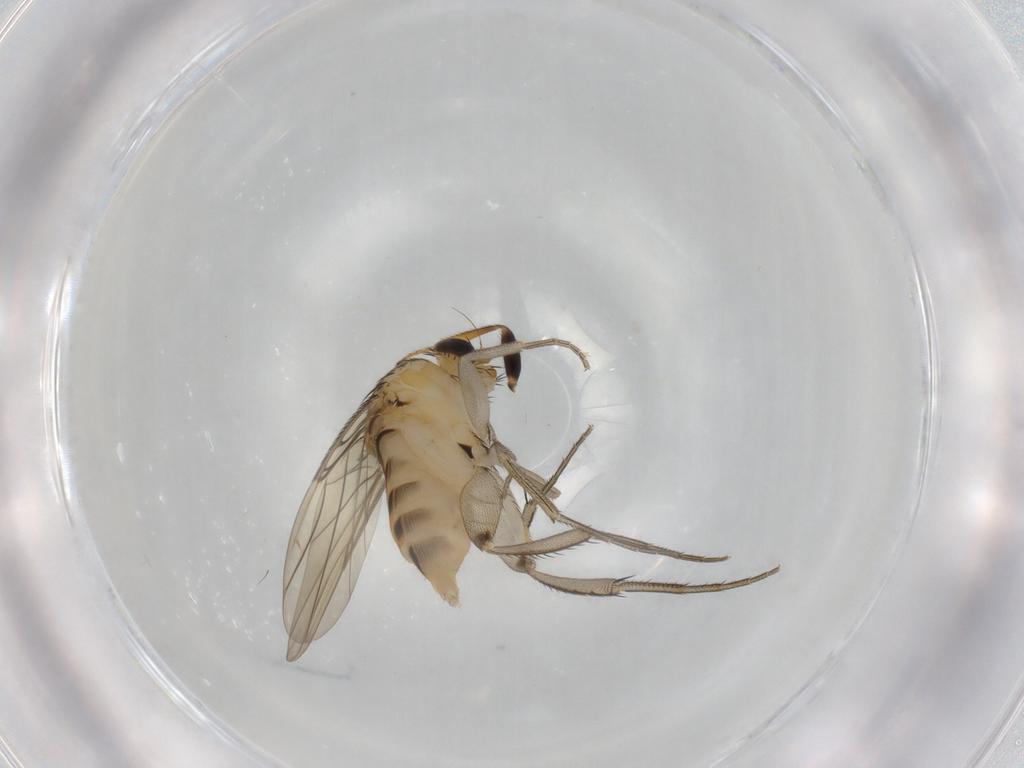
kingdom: Animalia
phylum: Arthropoda
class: Insecta
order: Diptera
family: Phoridae
